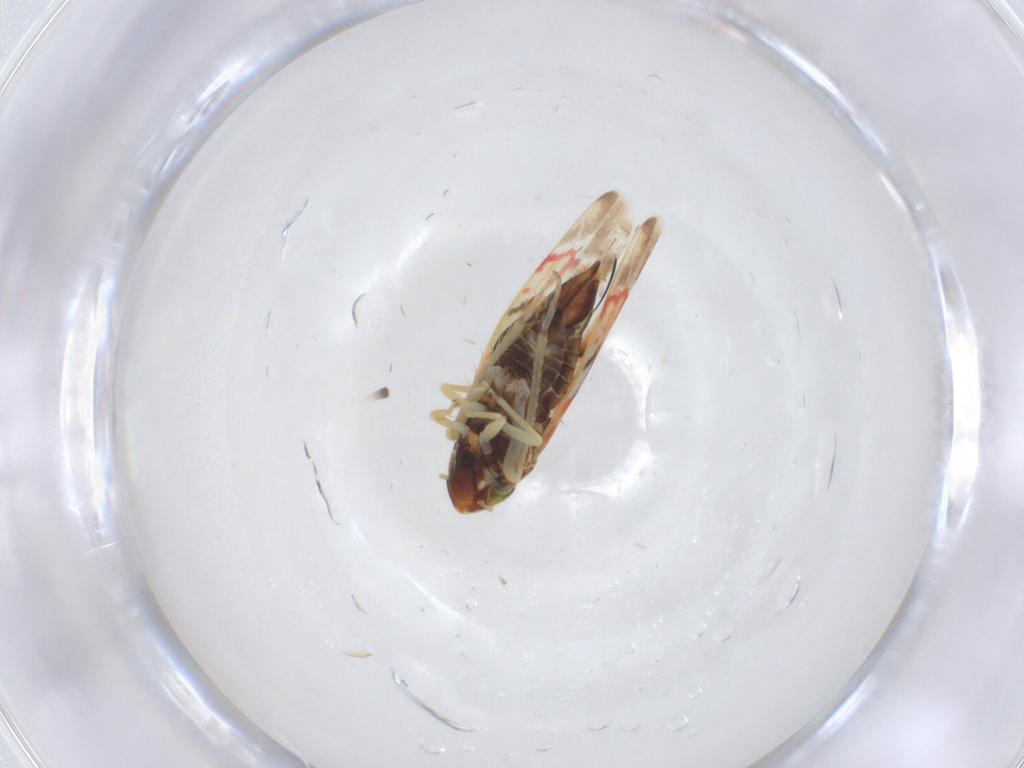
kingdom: Animalia
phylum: Arthropoda
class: Insecta
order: Hemiptera
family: Cicadellidae
